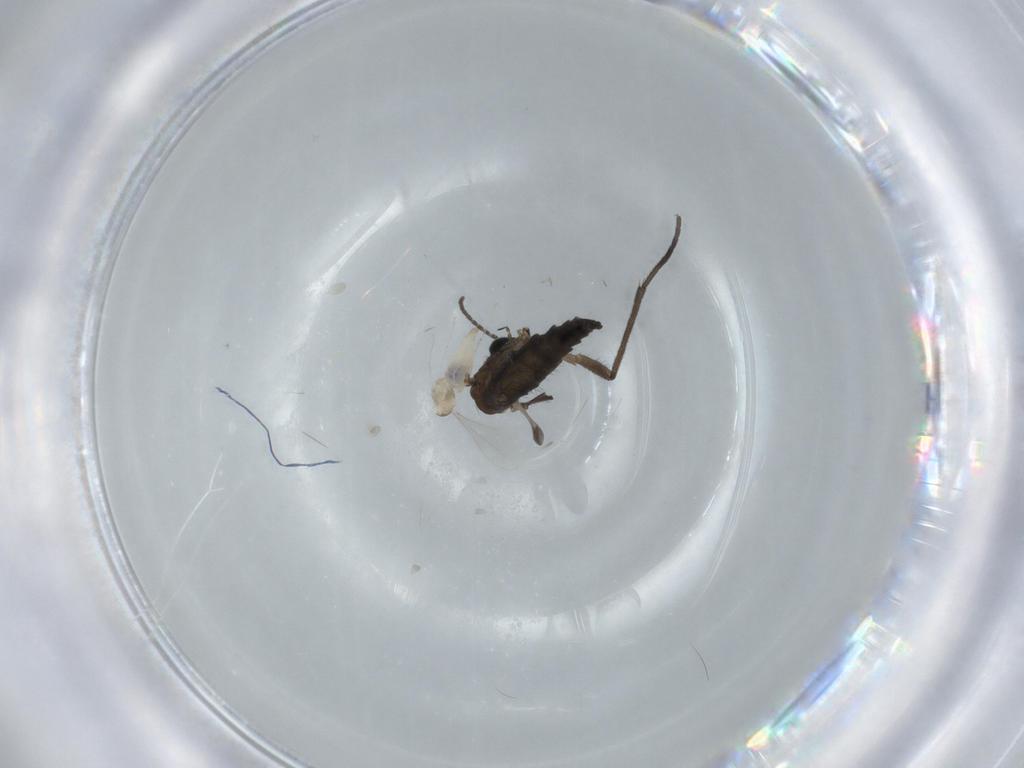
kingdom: Animalia
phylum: Arthropoda
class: Insecta
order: Diptera
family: Cecidomyiidae
